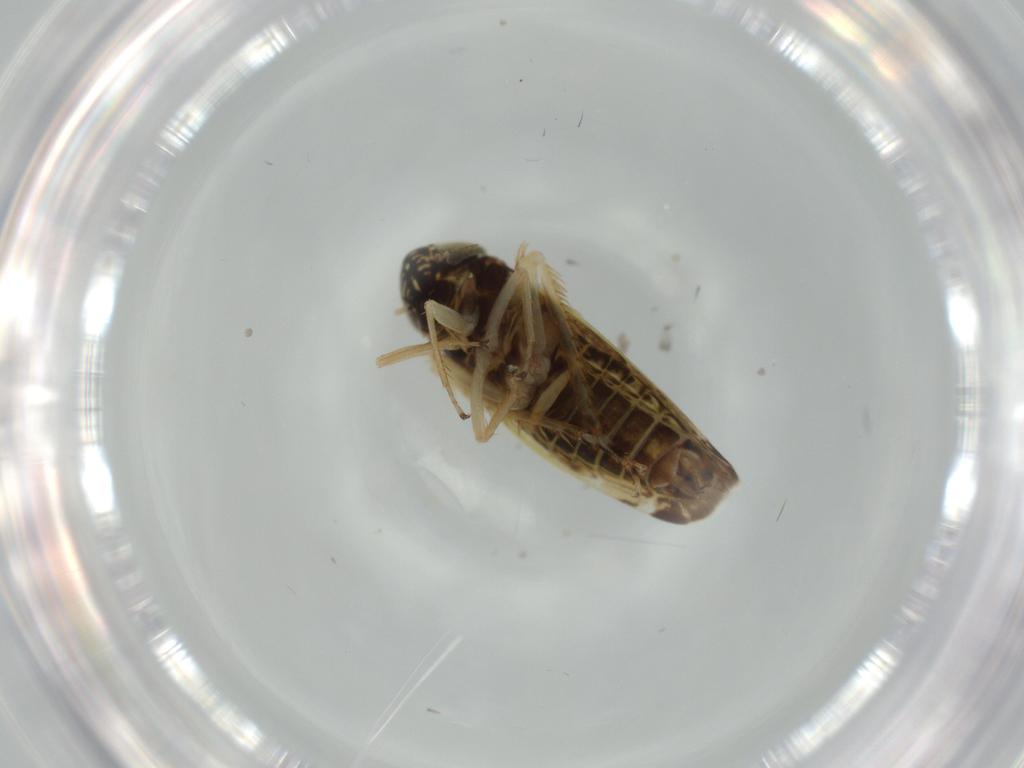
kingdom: Animalia
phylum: Arthropoda
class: Insecta
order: Hemiptera
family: Cicadellidae
